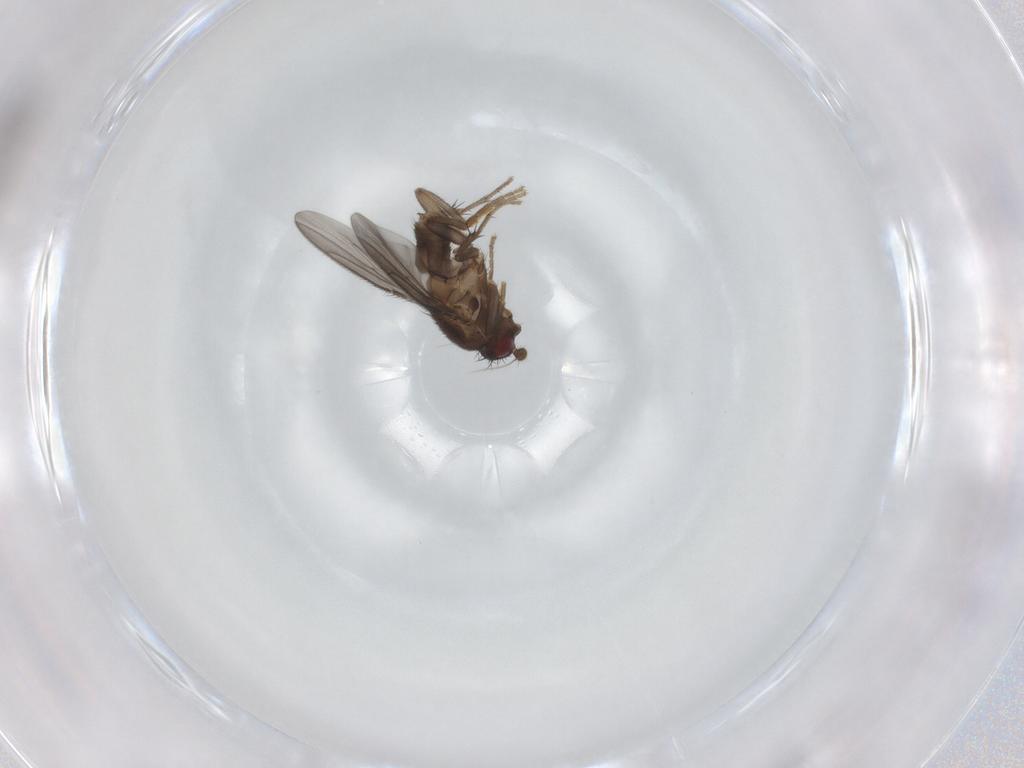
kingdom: Animalia
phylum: Arthropoda
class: Insecta
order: Diptera
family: Sphaeroceridae
